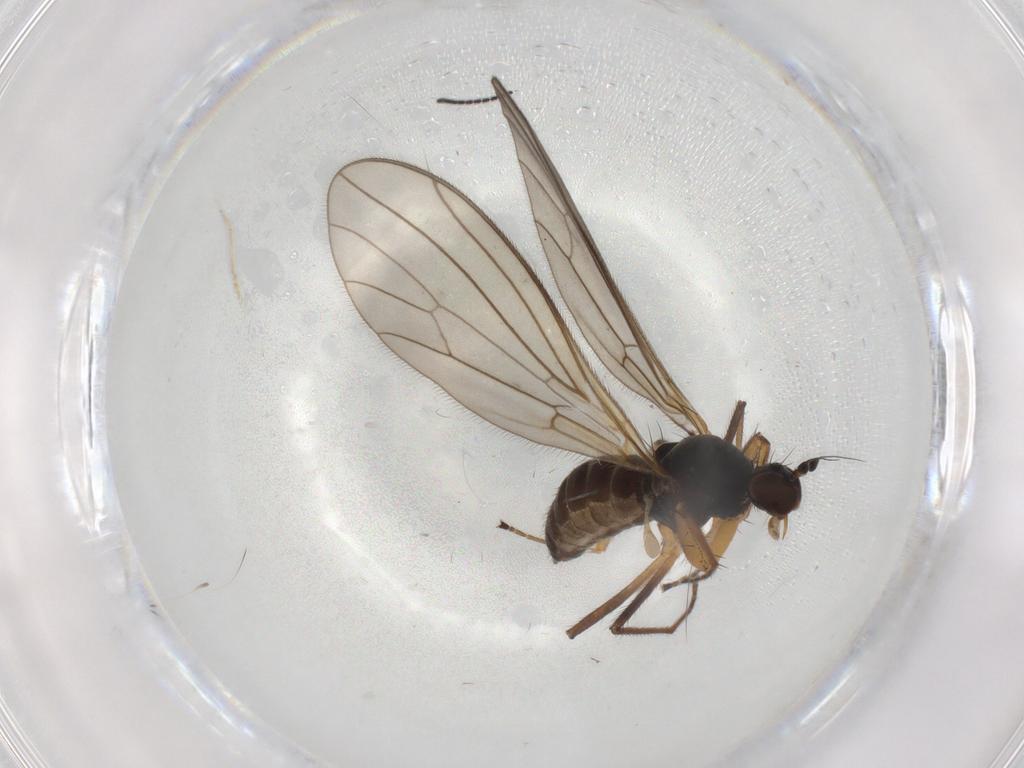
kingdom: Animalia
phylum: Arthropoda
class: Insecta
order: Diptera
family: Empididae
